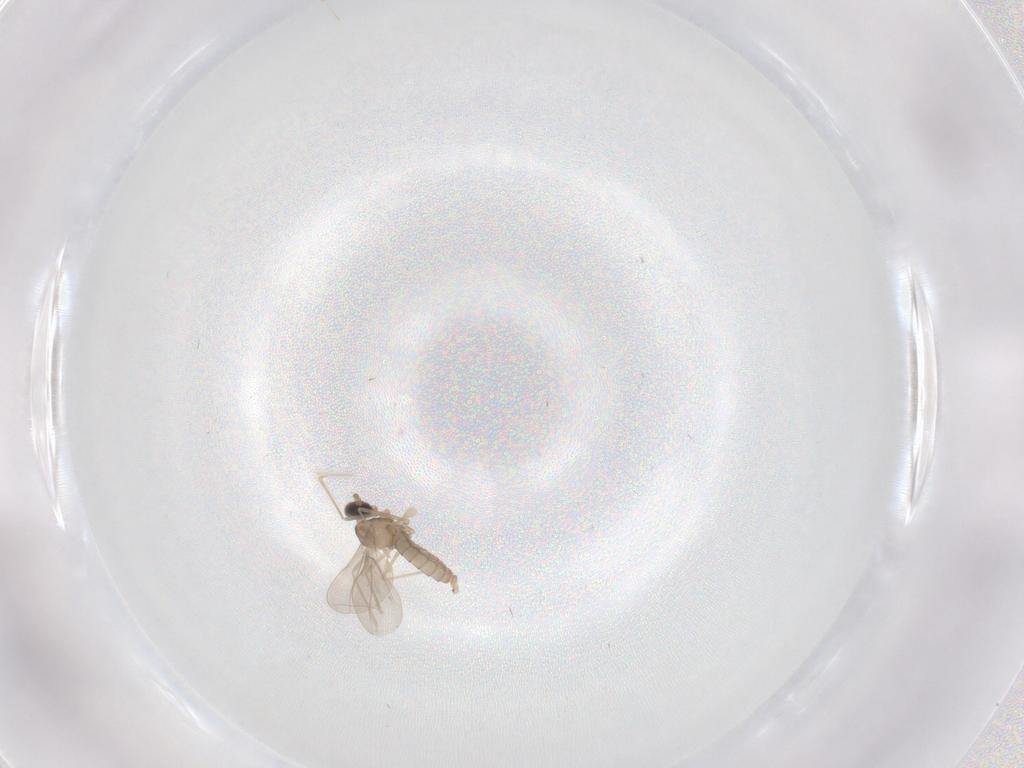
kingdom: Animalia
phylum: Arthropoda
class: Insecta
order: Diptera
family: Cecidomyiidae
